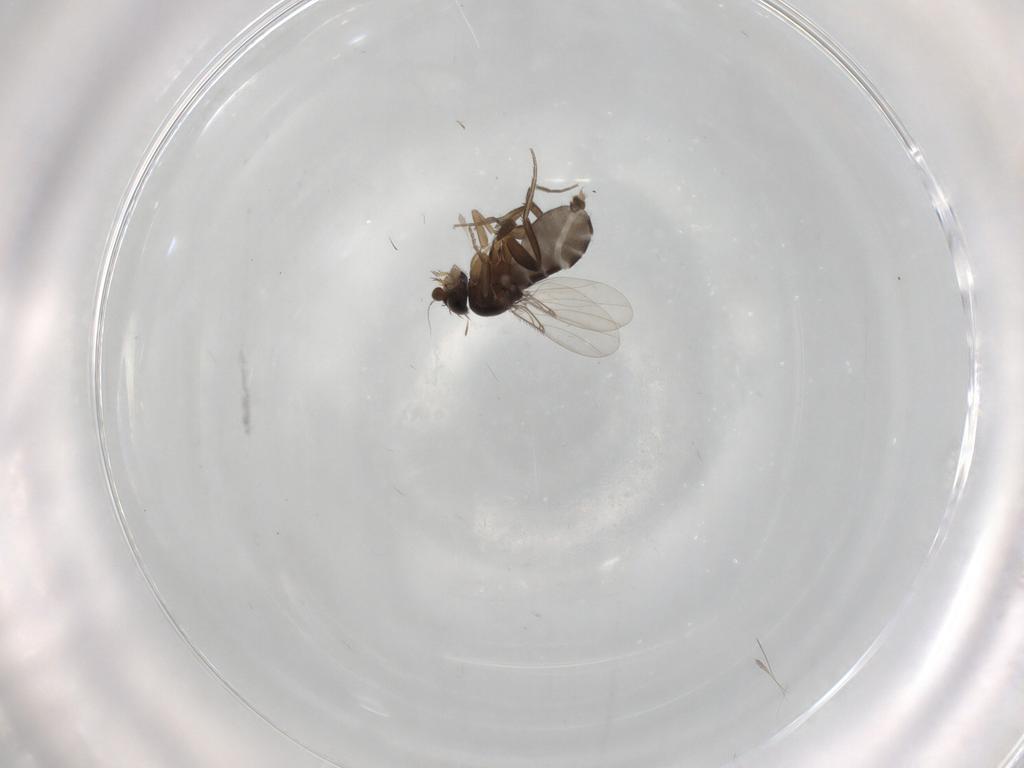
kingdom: Animalia
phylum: Arthropoda
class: Insecta
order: Diptera
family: Phoridae
